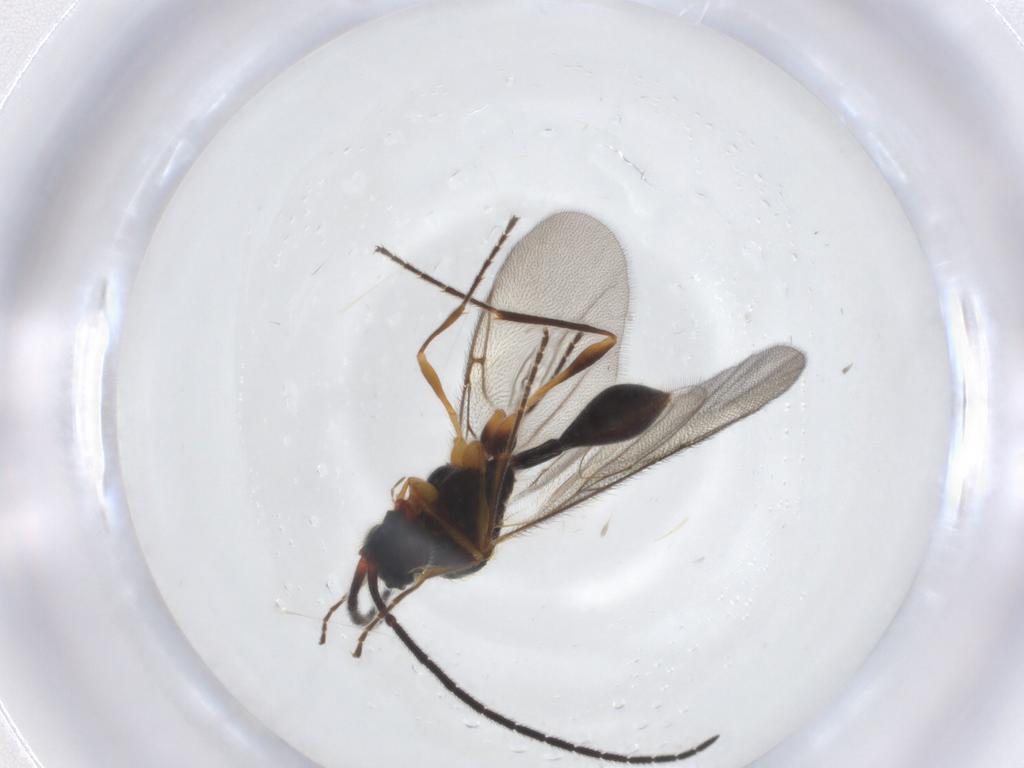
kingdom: Animalia
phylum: Arthropoda
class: Insecta
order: Hymenoptera
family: Diapriidae
